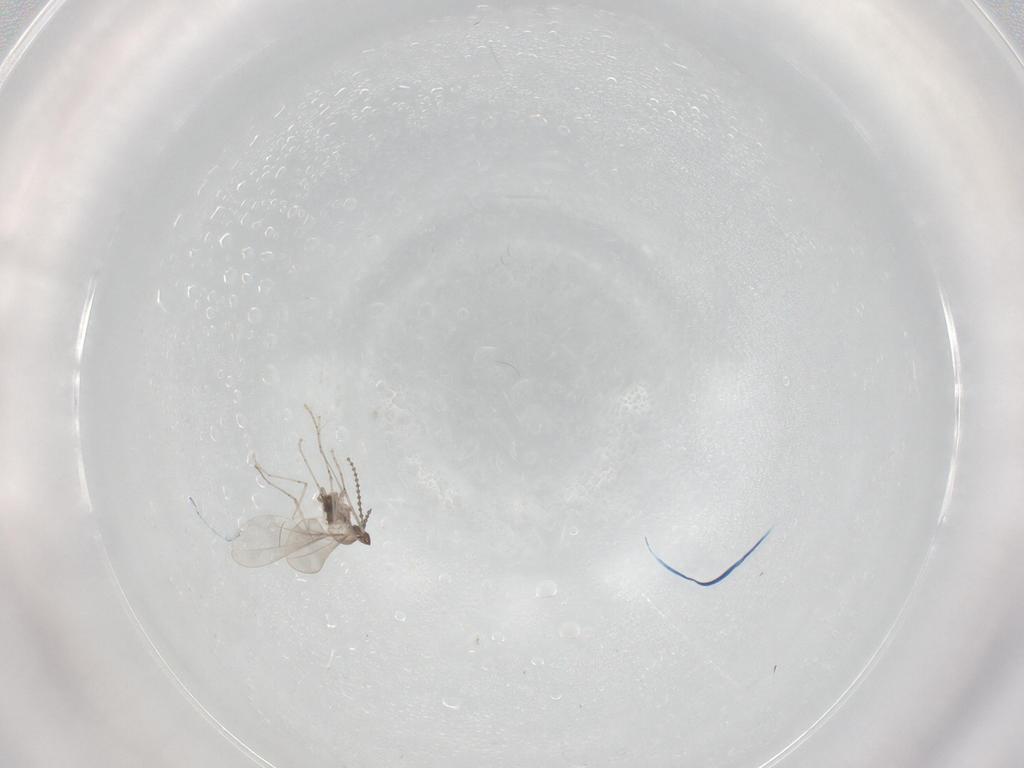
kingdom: Animalia
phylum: Arthropoda
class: Insecta
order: Diptera
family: Cecidomyiidae
